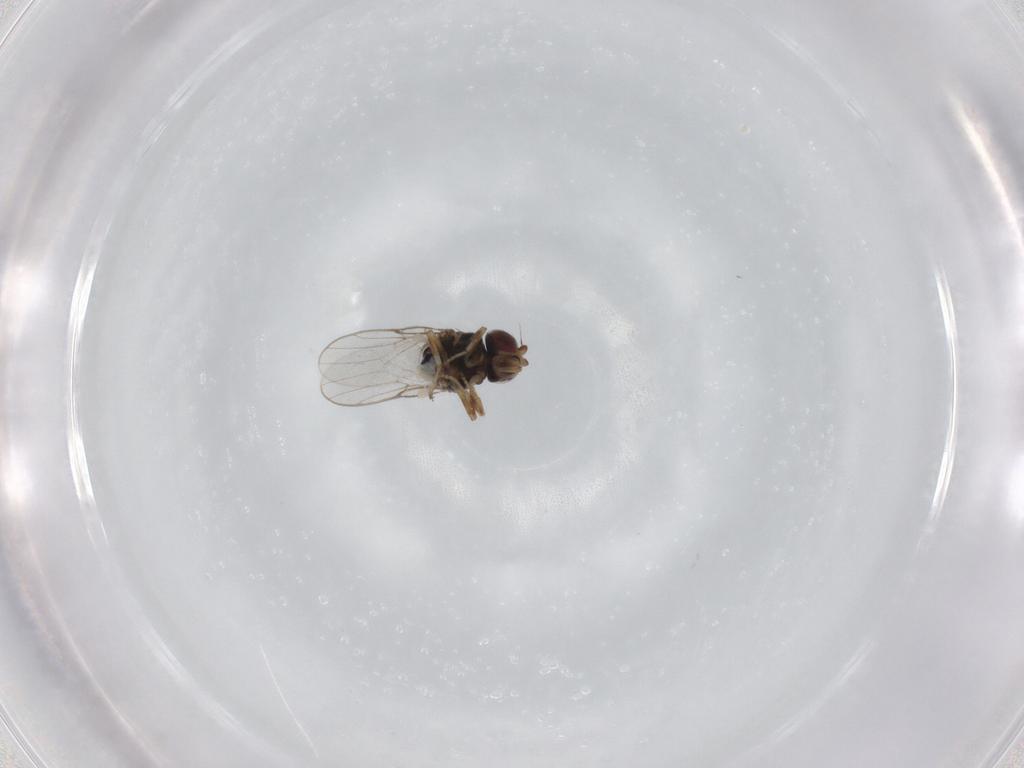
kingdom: Animalia
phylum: Arthropoda
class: Insecta
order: Diptera
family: Chloropidae
